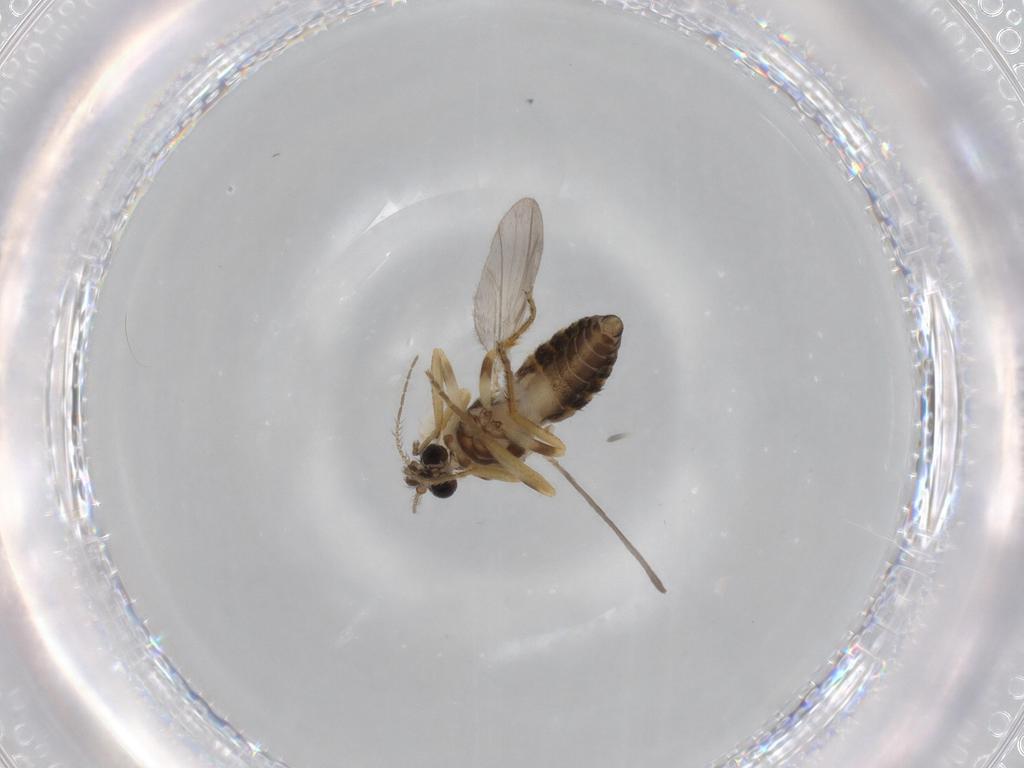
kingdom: Animalia
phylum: Arthropoda
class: Insecta
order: Diptera
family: Ceratopogonidae
